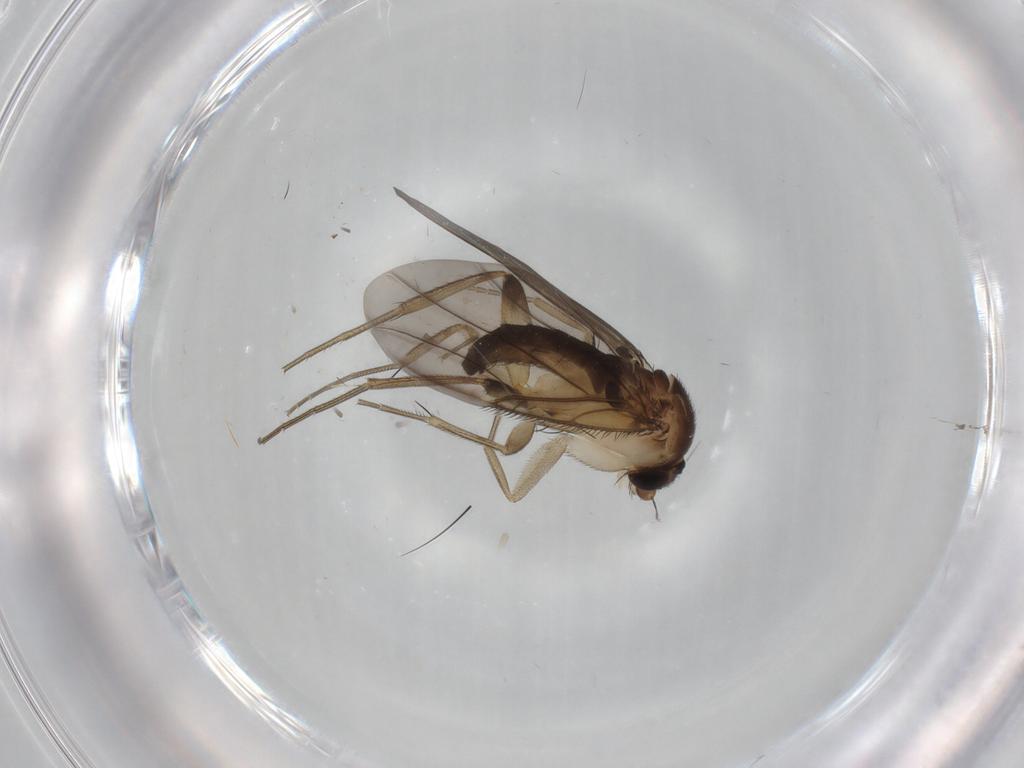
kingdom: Animalia
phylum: Arthropoda
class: Insecta
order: Diptera
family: Phoridae
